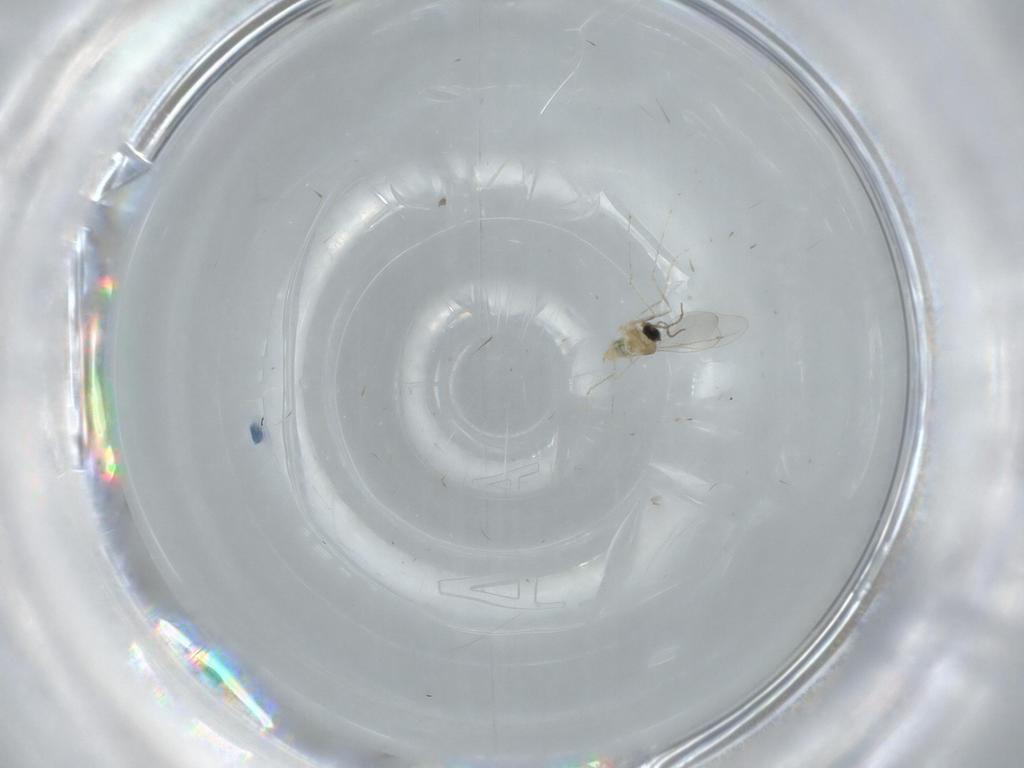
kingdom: Animalia
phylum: Arthropoda
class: Insecta
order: Diptera
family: Cecidomyiidae
